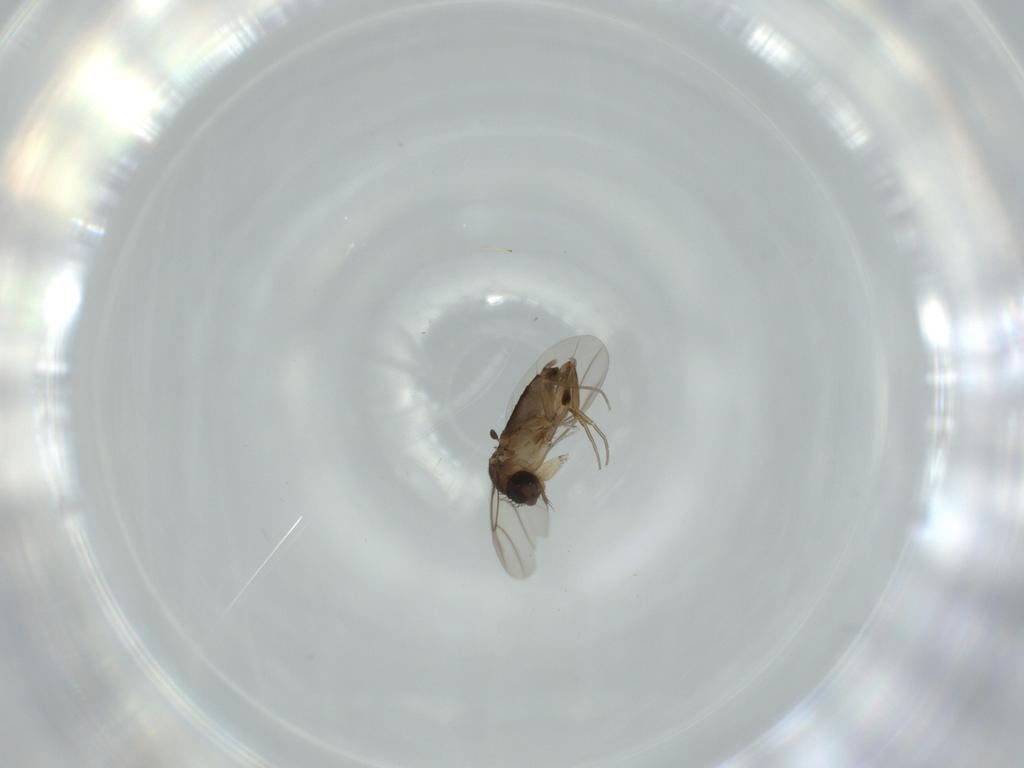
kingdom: Animalia
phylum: Arthropoda
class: Insecta
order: Diptera
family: Phoridae
